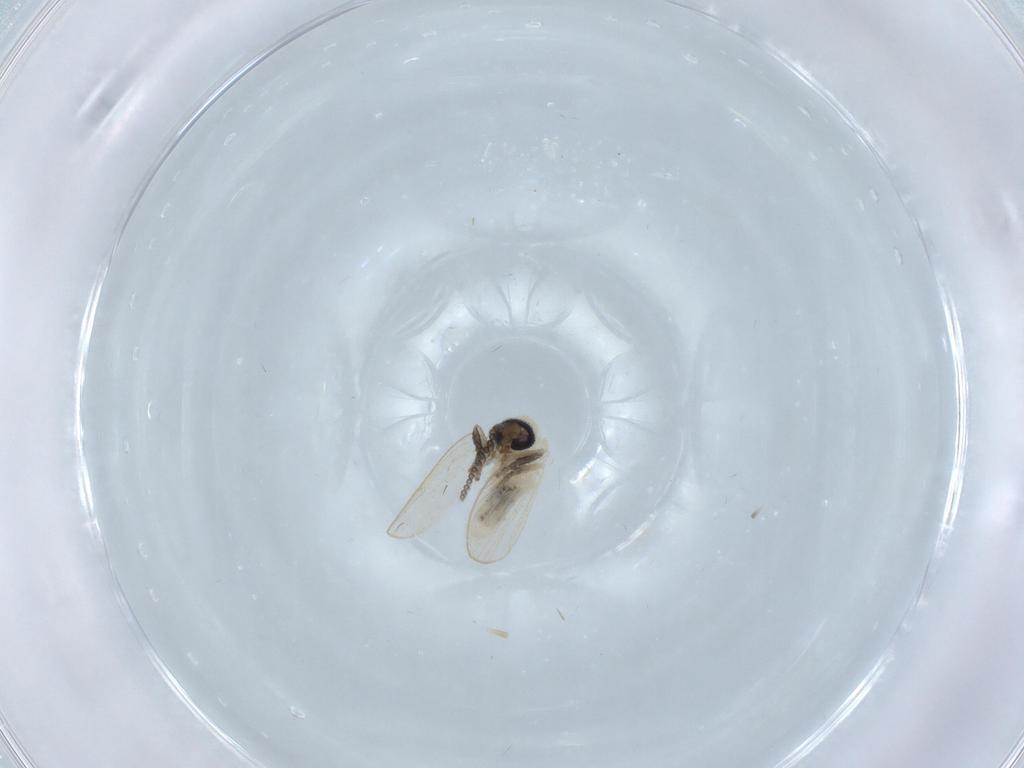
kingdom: Animalia
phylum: Arthropoda
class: Insecta
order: Diptera
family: Psychodidae
